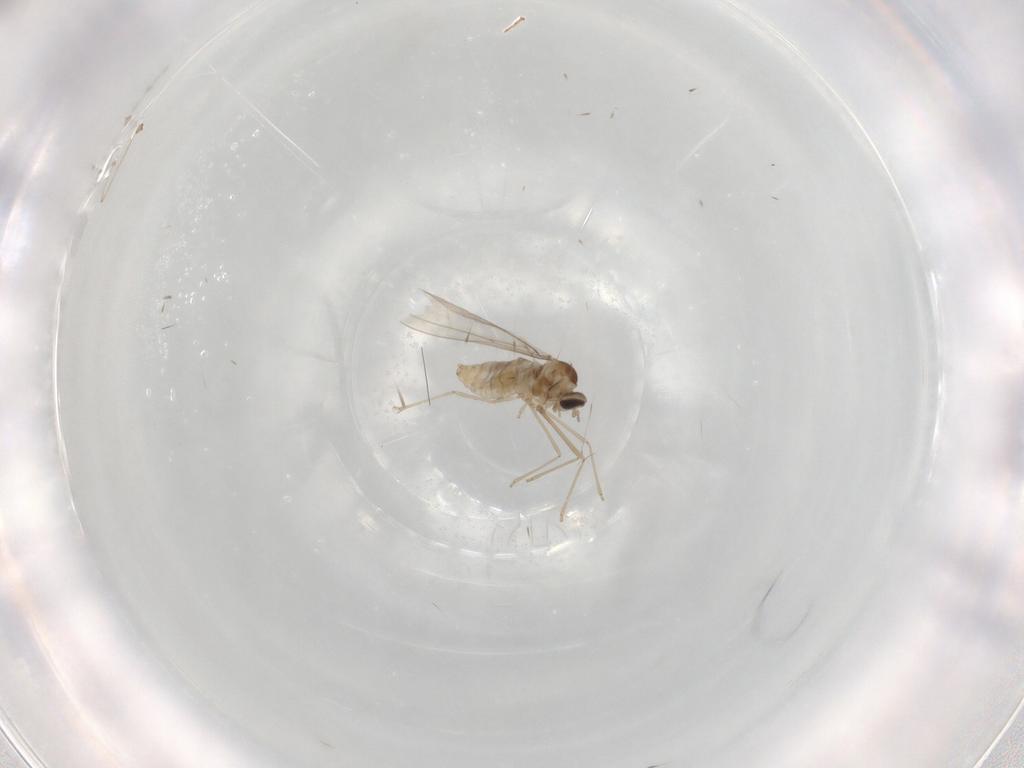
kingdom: Animalia
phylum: Arthropoda
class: Insecta
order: Diptera
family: Cecidomyiidae
